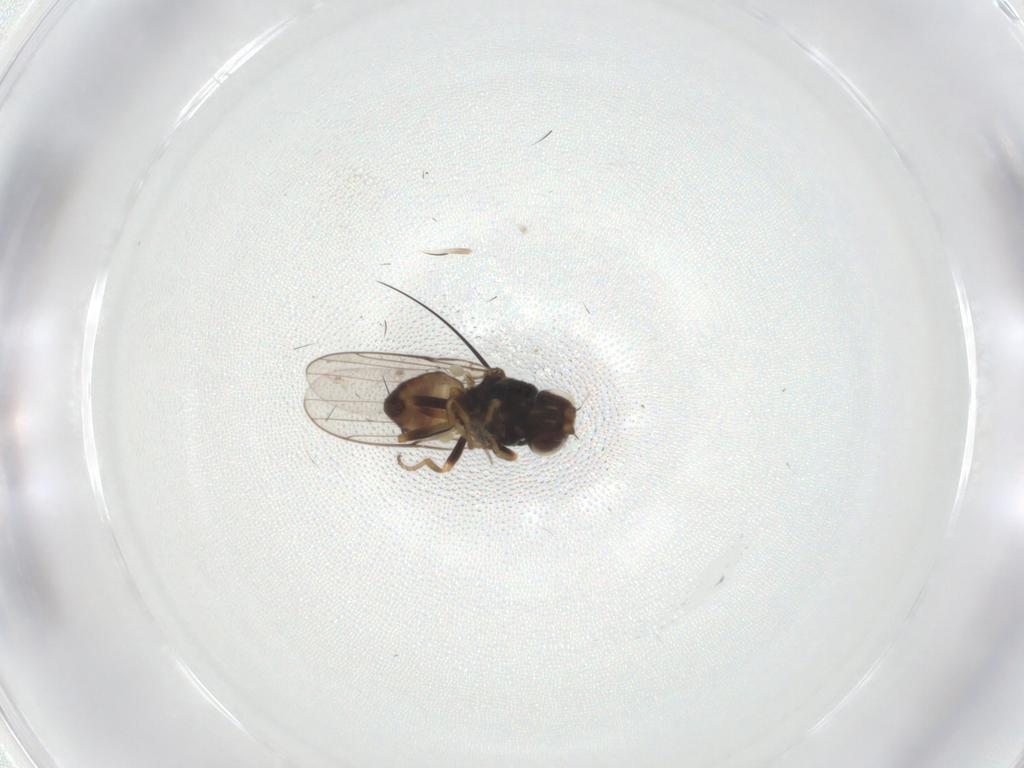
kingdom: Animalia
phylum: Arthropoda
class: Insecta
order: Diptera
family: Chloropidae
